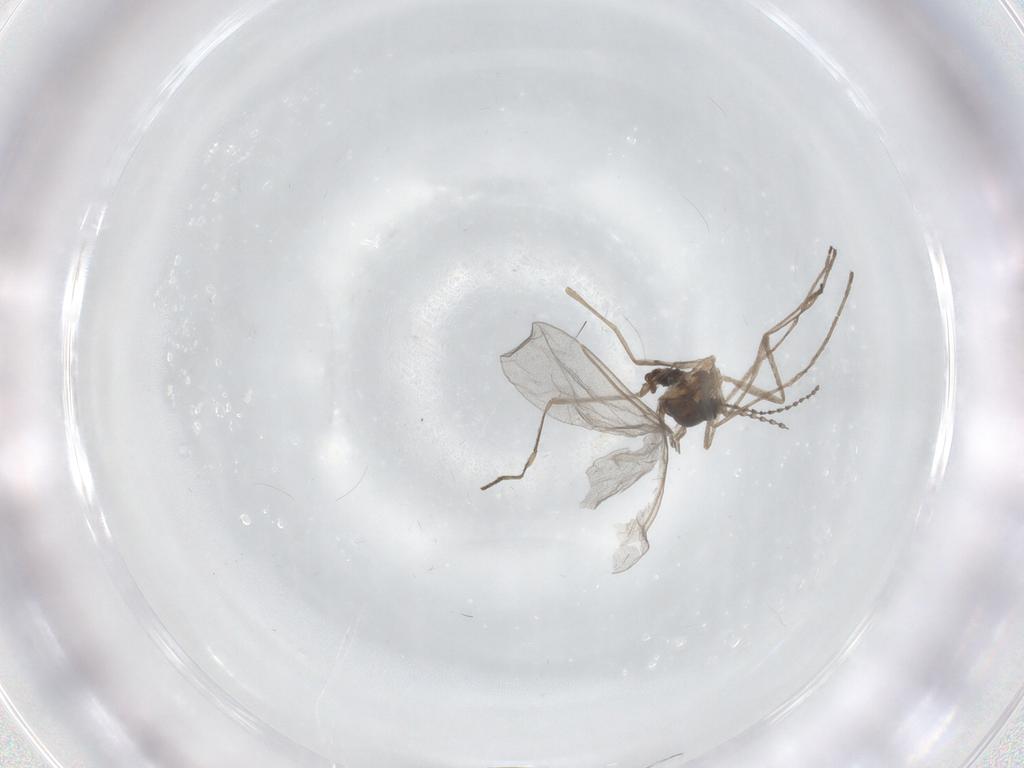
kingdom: Animalia
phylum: Arthropoda
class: Insecta
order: Diptera
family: Cecidomyiidae
